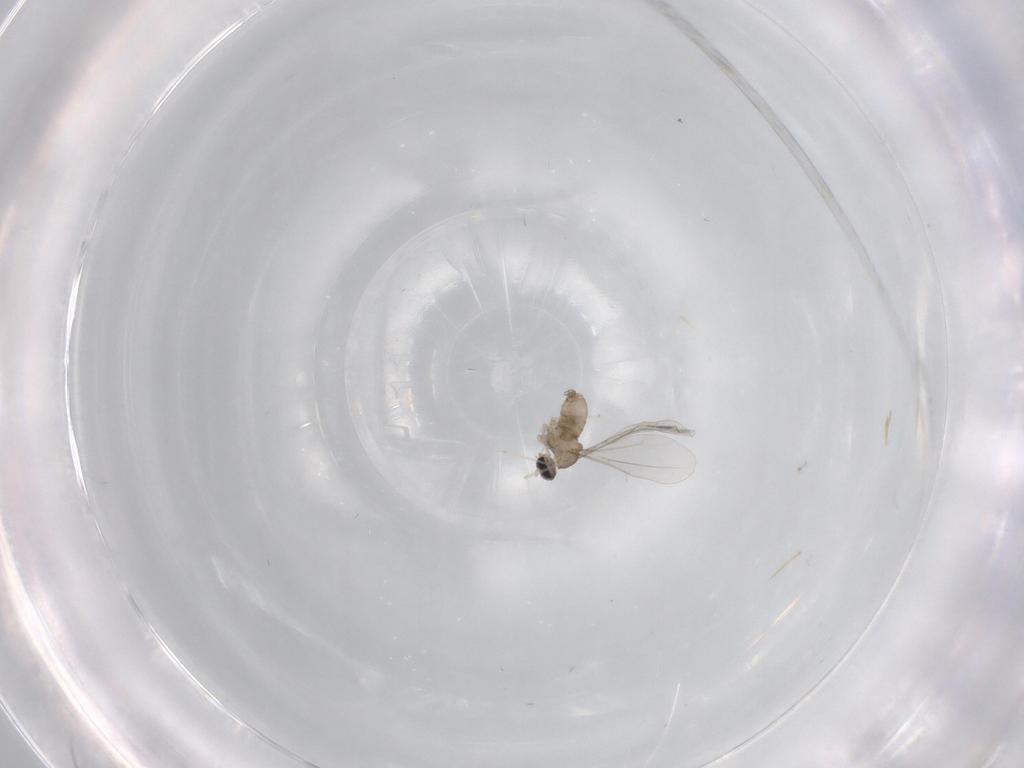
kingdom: Animalia
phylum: Arthropoda
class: Insecta
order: Diptera
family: Cecidomyiidae
